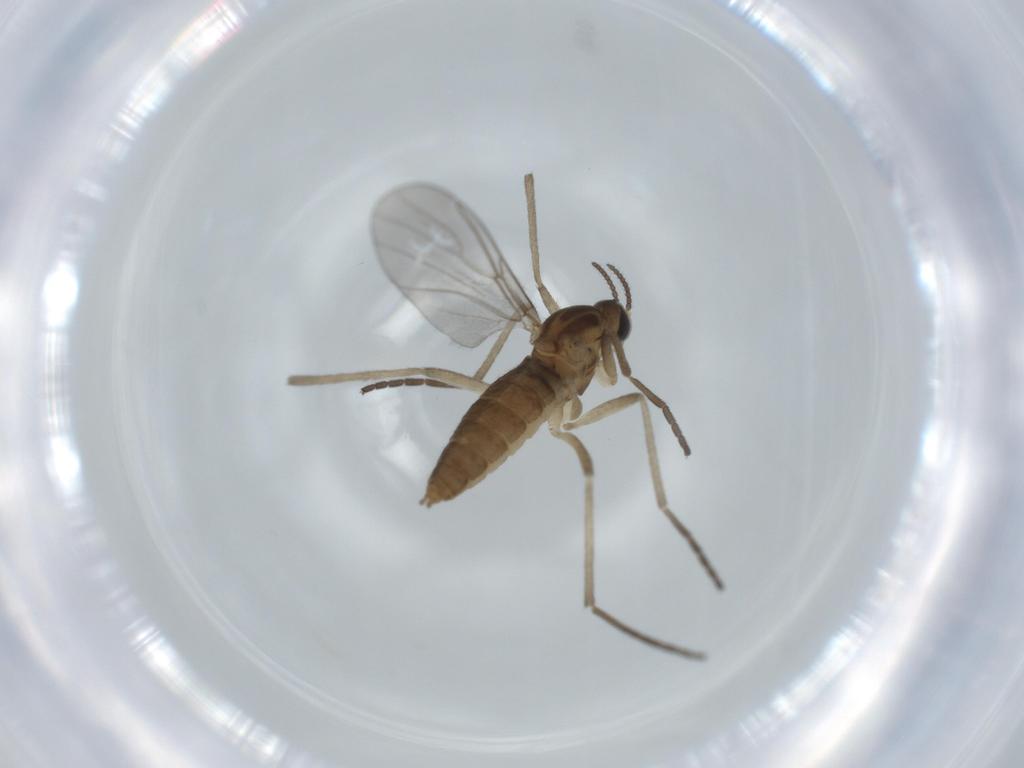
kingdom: Animalia
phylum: Arthropoda
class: Insecta
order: Diptera
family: Cecidomyiidae
